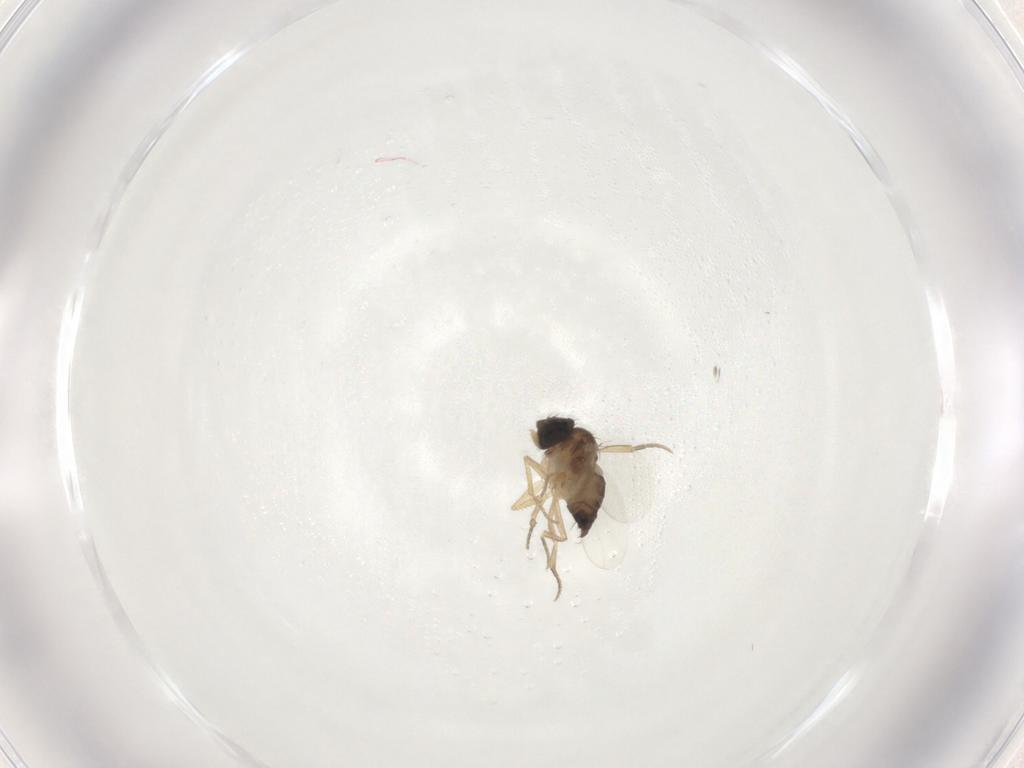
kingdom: Animalia
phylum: Arthropoda
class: Insecta
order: Diptera
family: Phoridae
